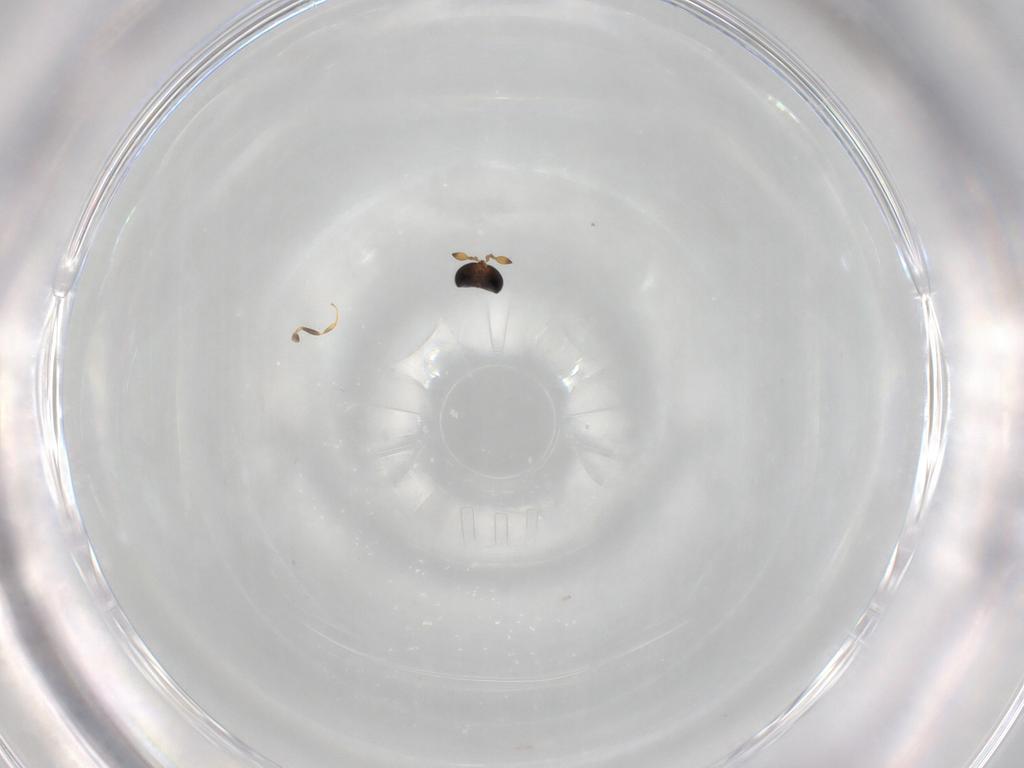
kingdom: Animalia
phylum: Arthropoda
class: Insecta
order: Hymenoptera
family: Scelionidae
